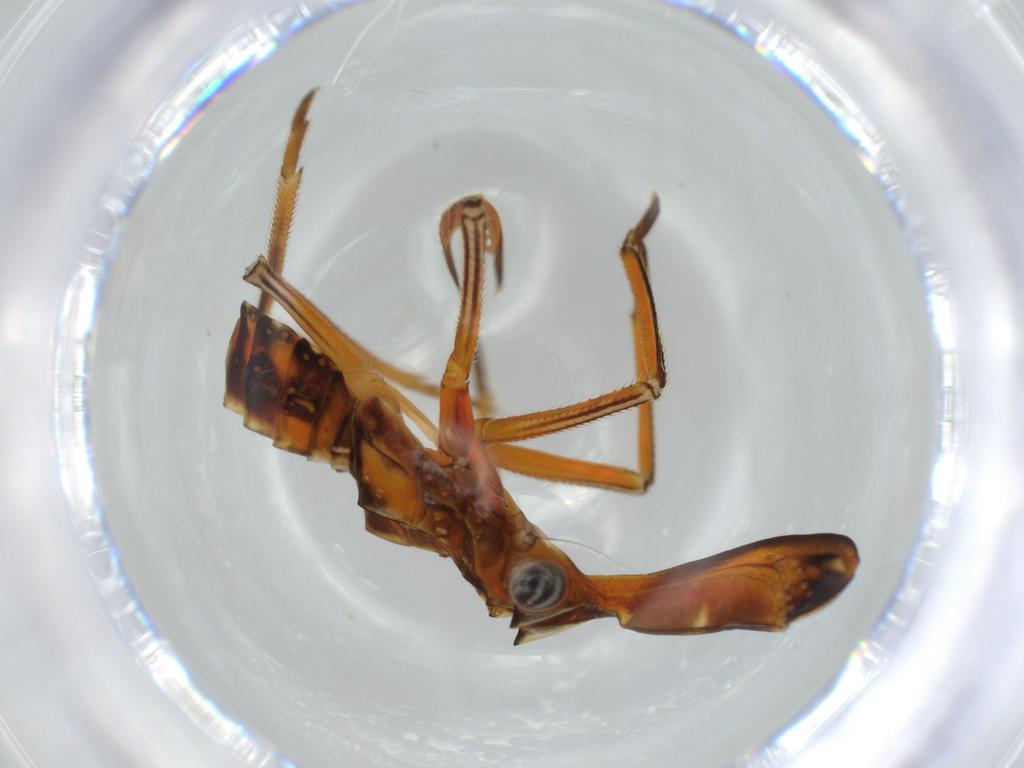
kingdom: Animalia
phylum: Arthropoda
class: Insecta
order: Hemiptera
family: Fulgoridae
